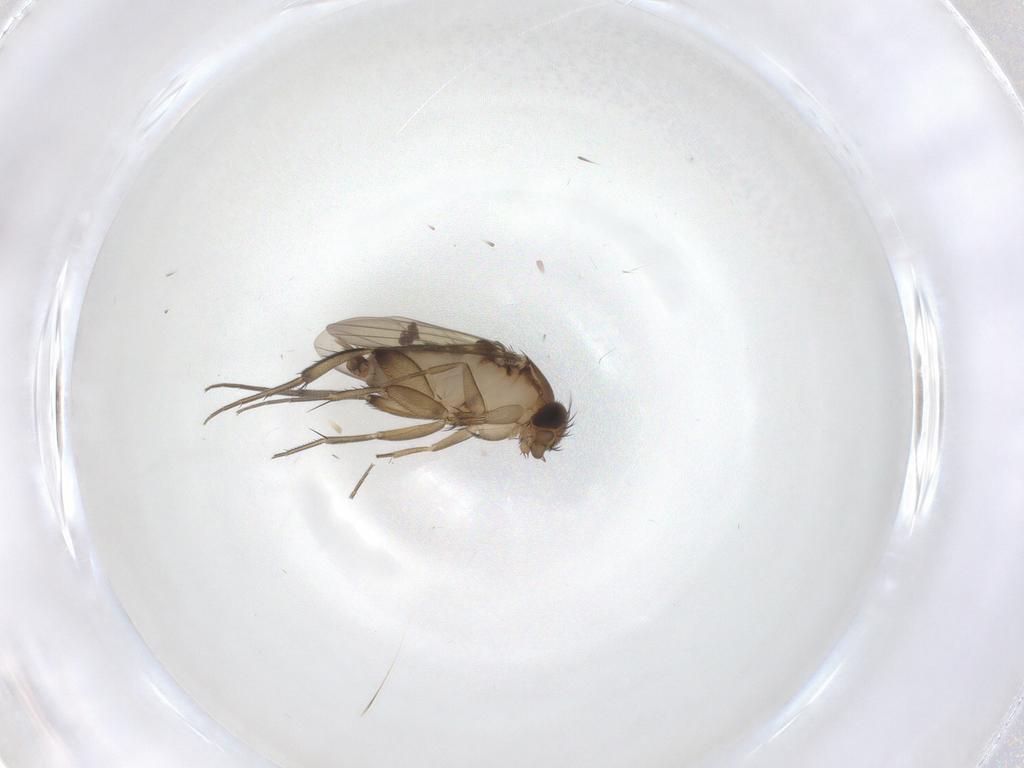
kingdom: Animalia
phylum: Arthropoda
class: Insecta
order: Diptera
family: Phoridae
